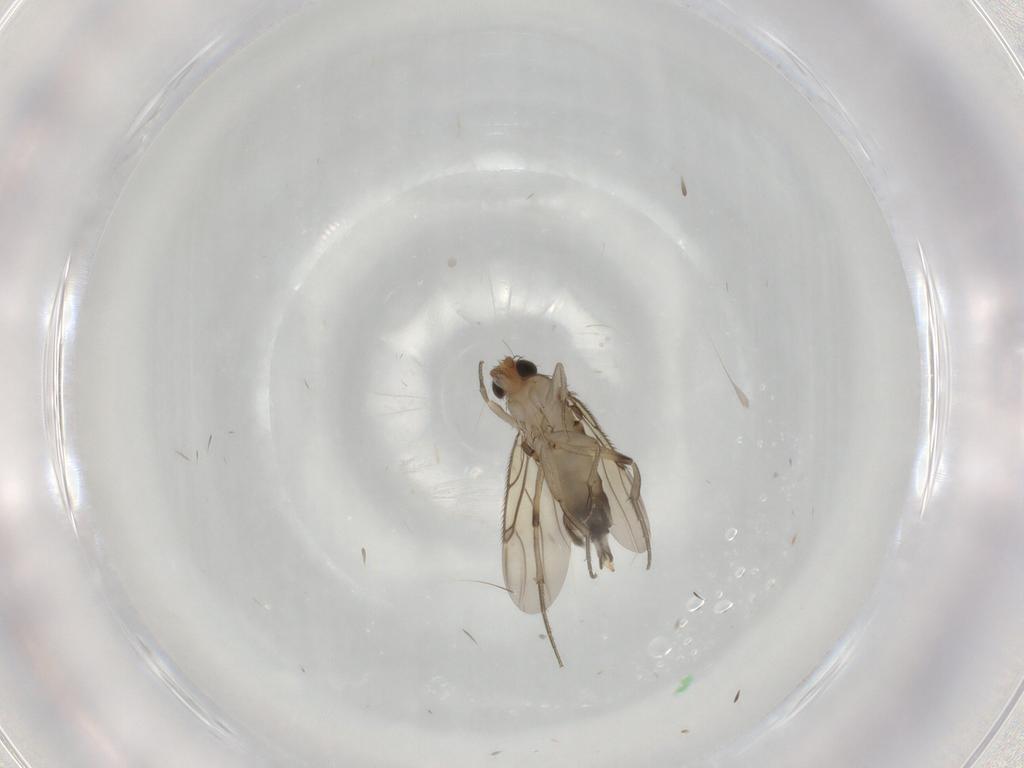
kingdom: Animalia
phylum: Arthropoda
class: Insecta
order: Diptera
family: Phoridae
